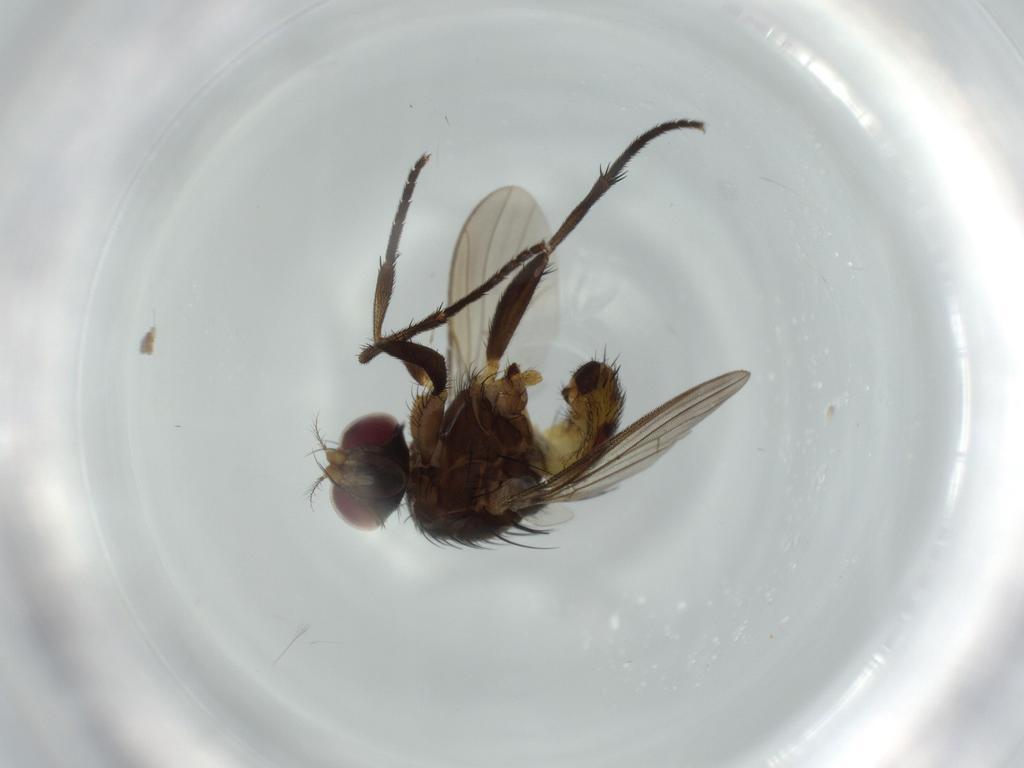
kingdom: Animalia
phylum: Arthropoda
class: Insecta
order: Diptera
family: Anthomyiidae
